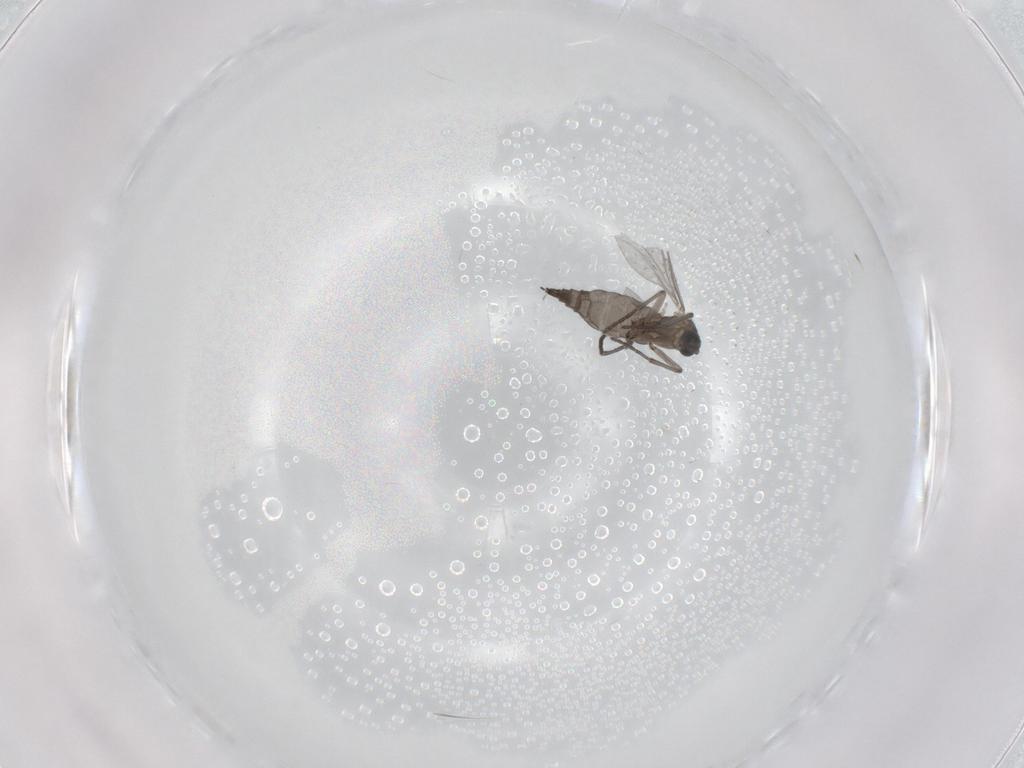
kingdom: Animalia
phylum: Arthropoda
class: Insecta
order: Diptera
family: Sciaridae
